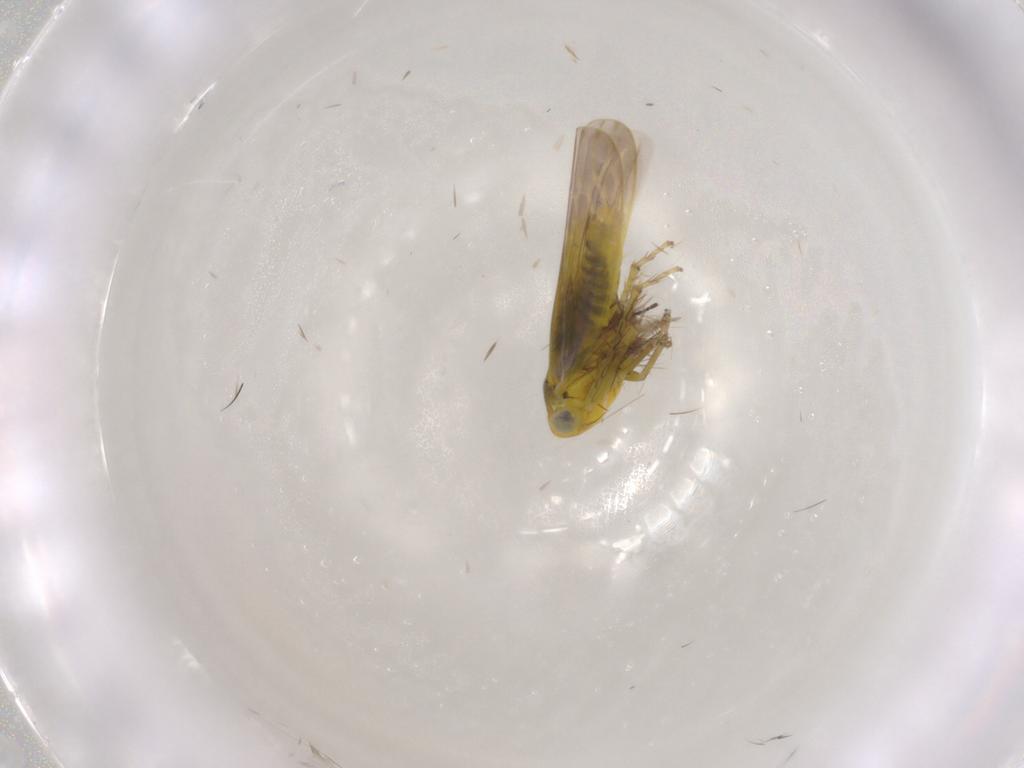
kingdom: Animalia
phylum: Arthropoda
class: Insecta
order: Hemiptera
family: Cicadellidae
